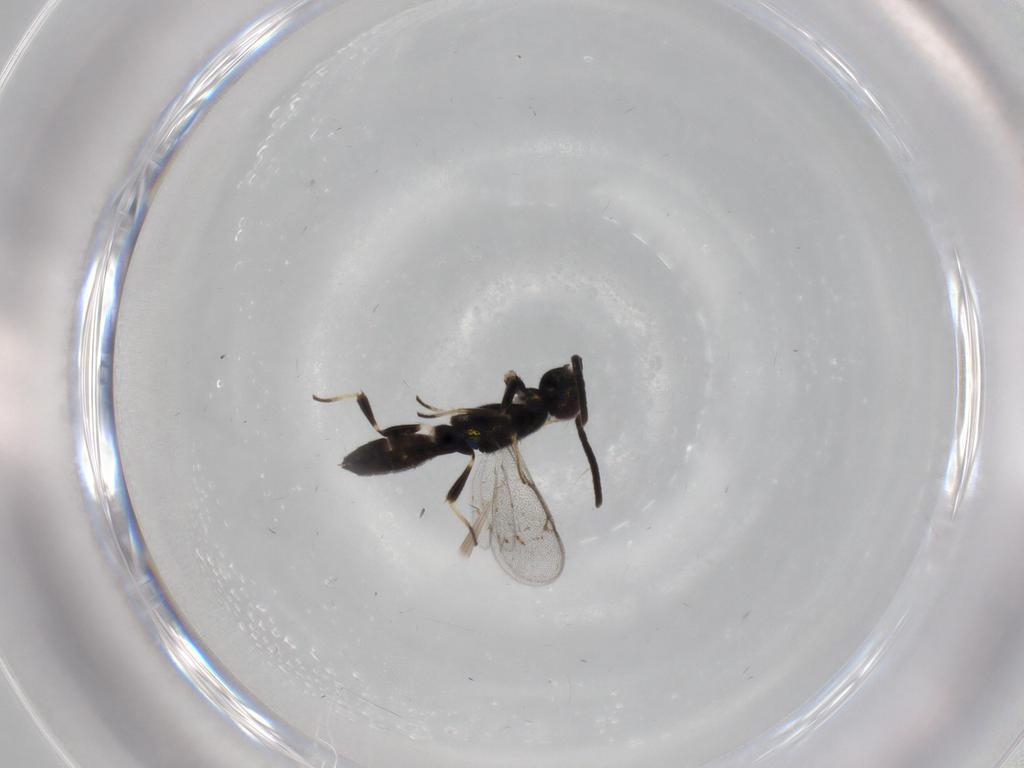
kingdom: Animalia
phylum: Arthropoda
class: Insecta
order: Hymenoptera
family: Eupelmidae
